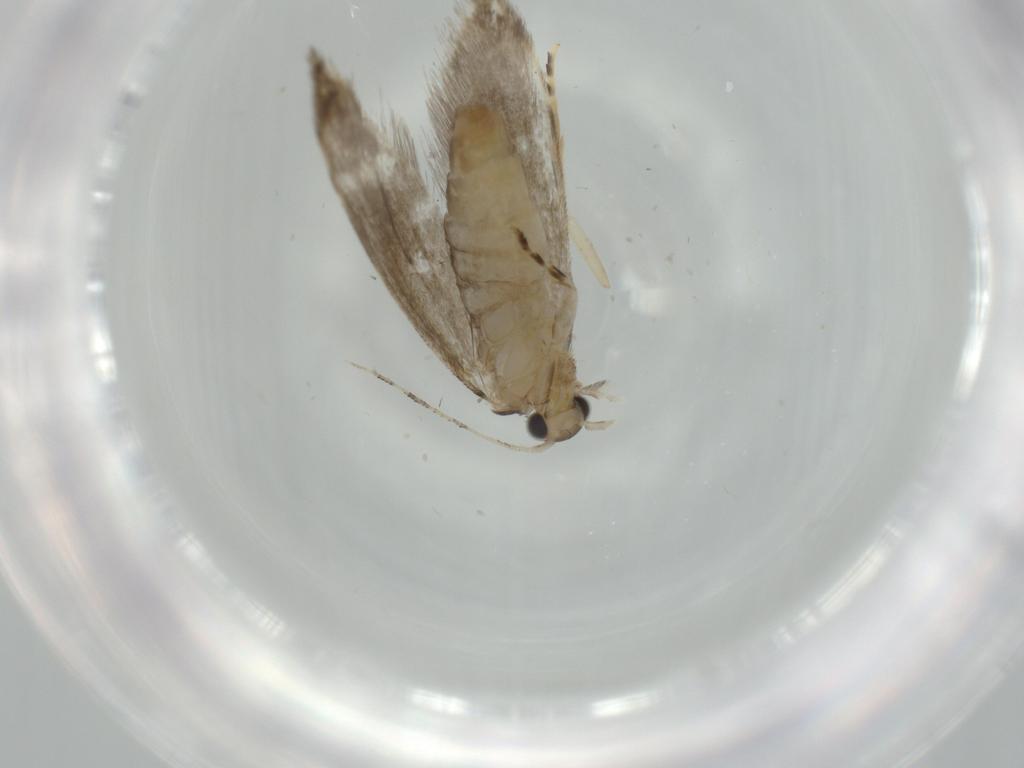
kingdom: Animalia
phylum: Arthropoda
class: Insecta
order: Lepidoptera
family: Tineidae
